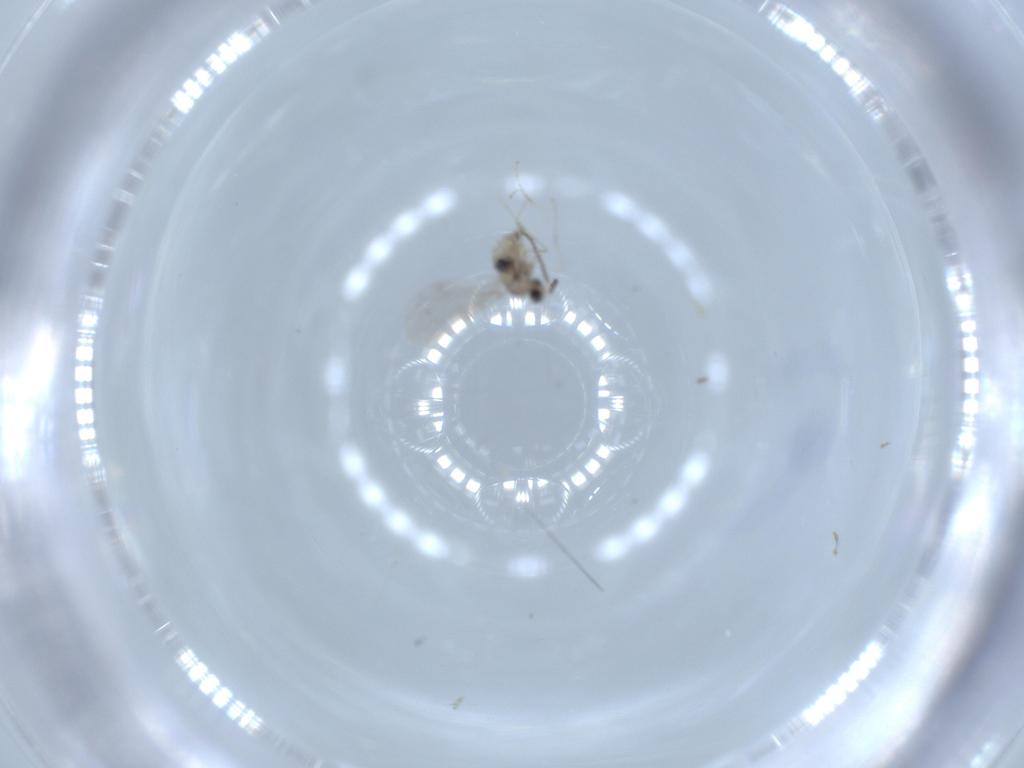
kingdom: Animalia
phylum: Arthropoda
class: Insecta
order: Diptera
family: Cecidomyiidae
